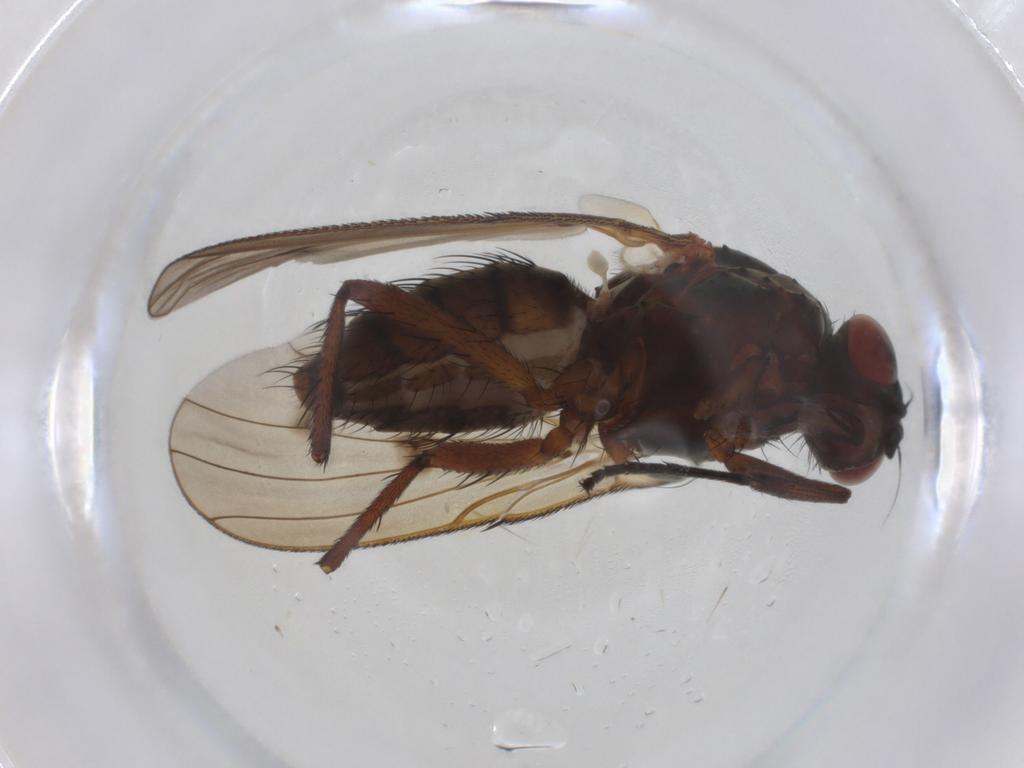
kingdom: Animalia
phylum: Arthropoda
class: Insecta
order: Diptera
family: Anthomyiidae
